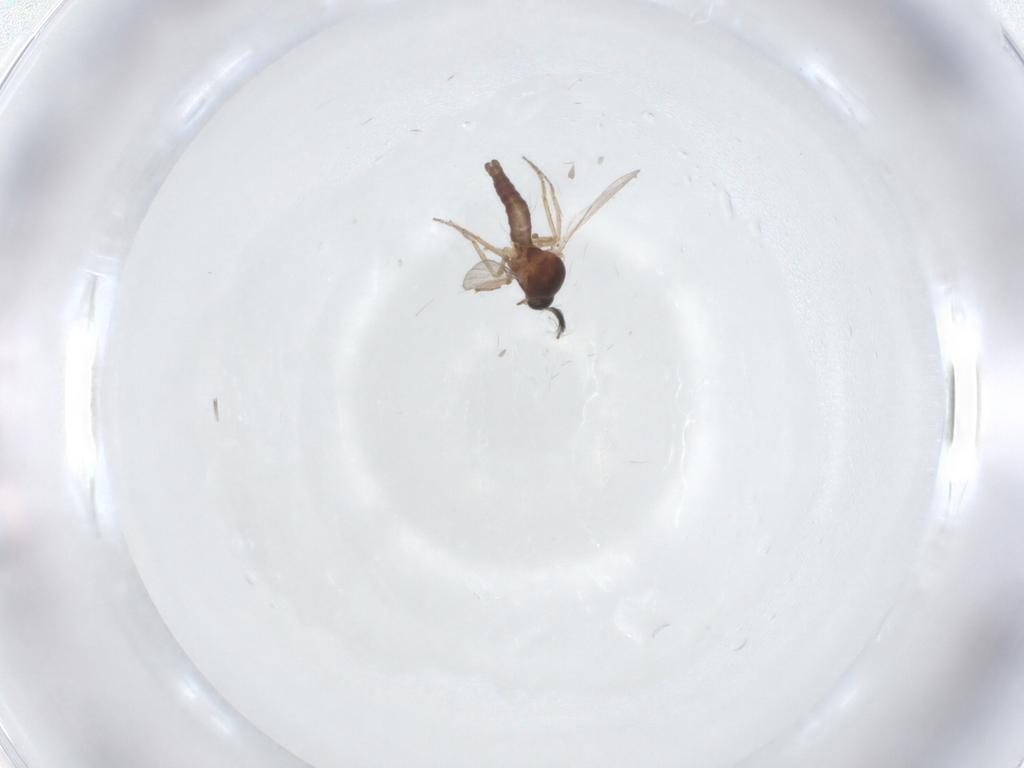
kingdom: Animalia
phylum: Arthropoda
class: Insecta
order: Diptera
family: Ceratopogonidae
